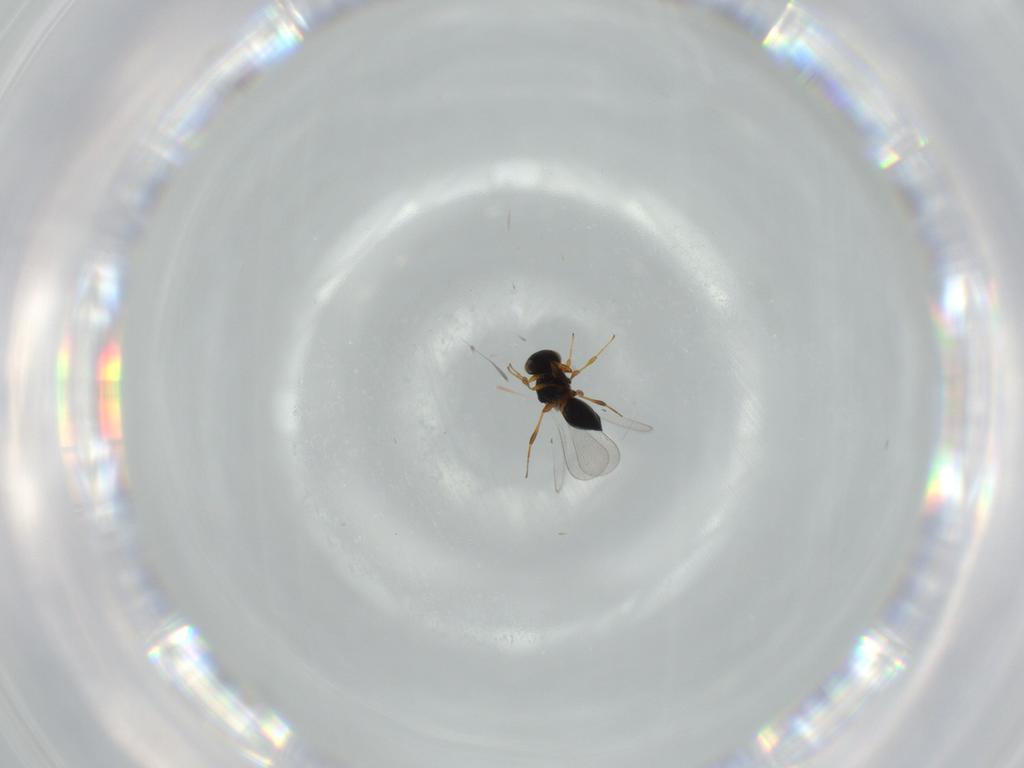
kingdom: Animalia
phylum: Arthropoda
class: Insecta
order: Hymenoptera
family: Platygastridae
